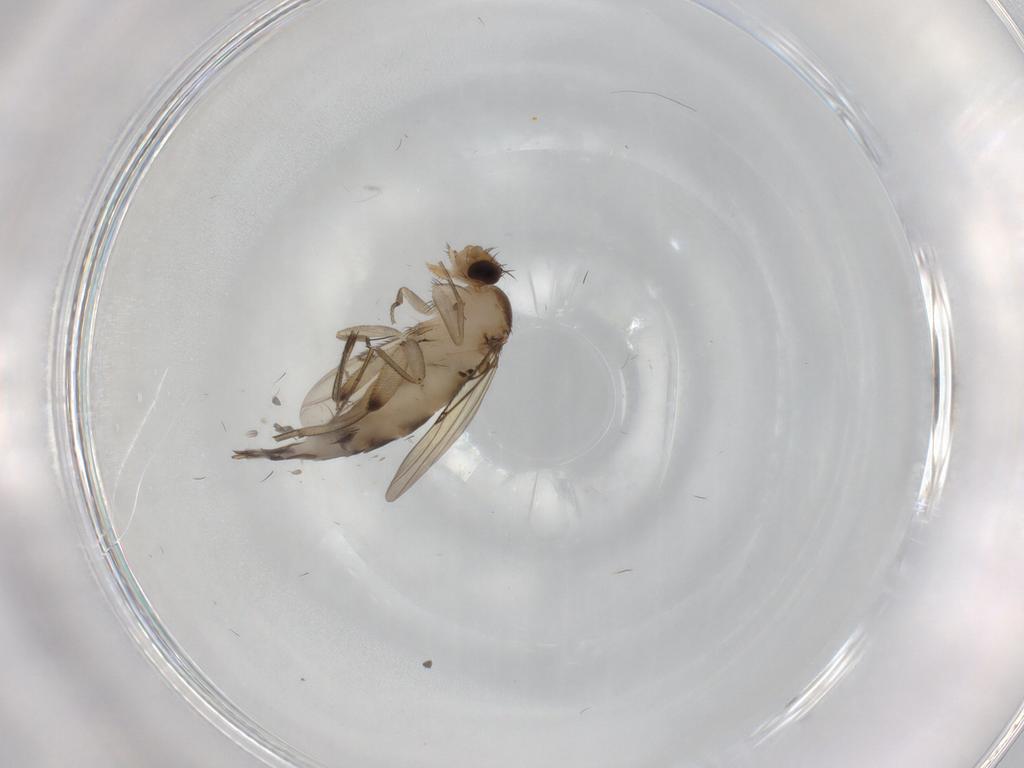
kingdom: Animalia
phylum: Arthropoda
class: Insecta
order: Diptera
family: Phoridae
